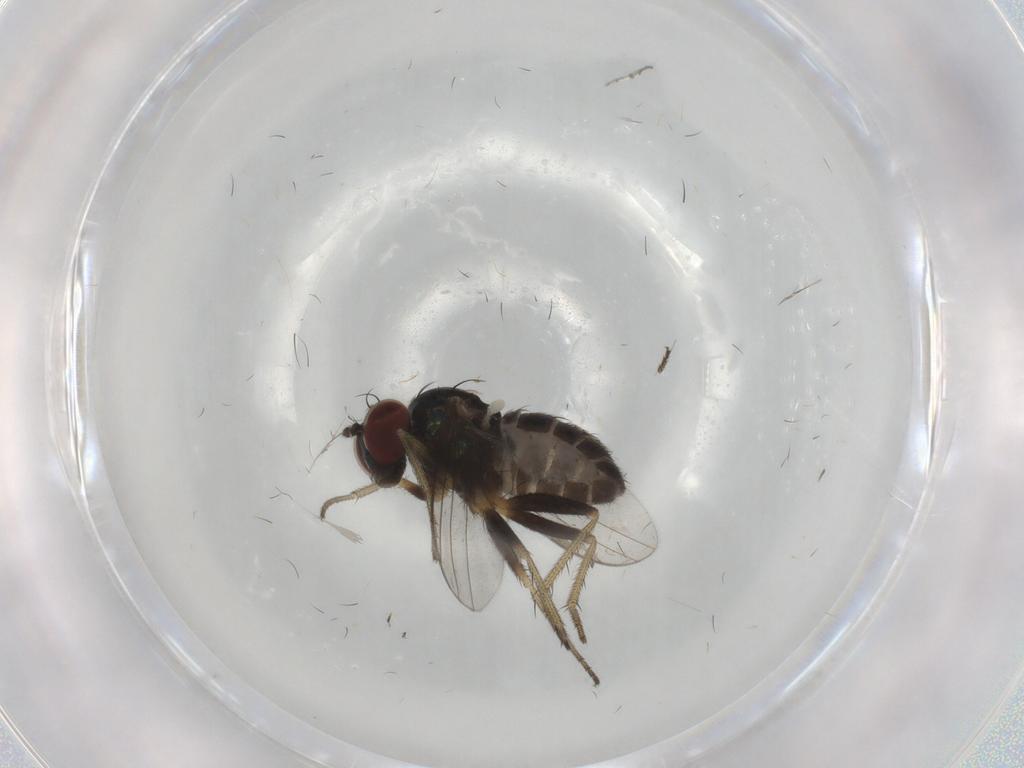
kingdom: Animalia
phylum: Arthropoda
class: Insecta
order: Diptera
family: Dolichopodidae
